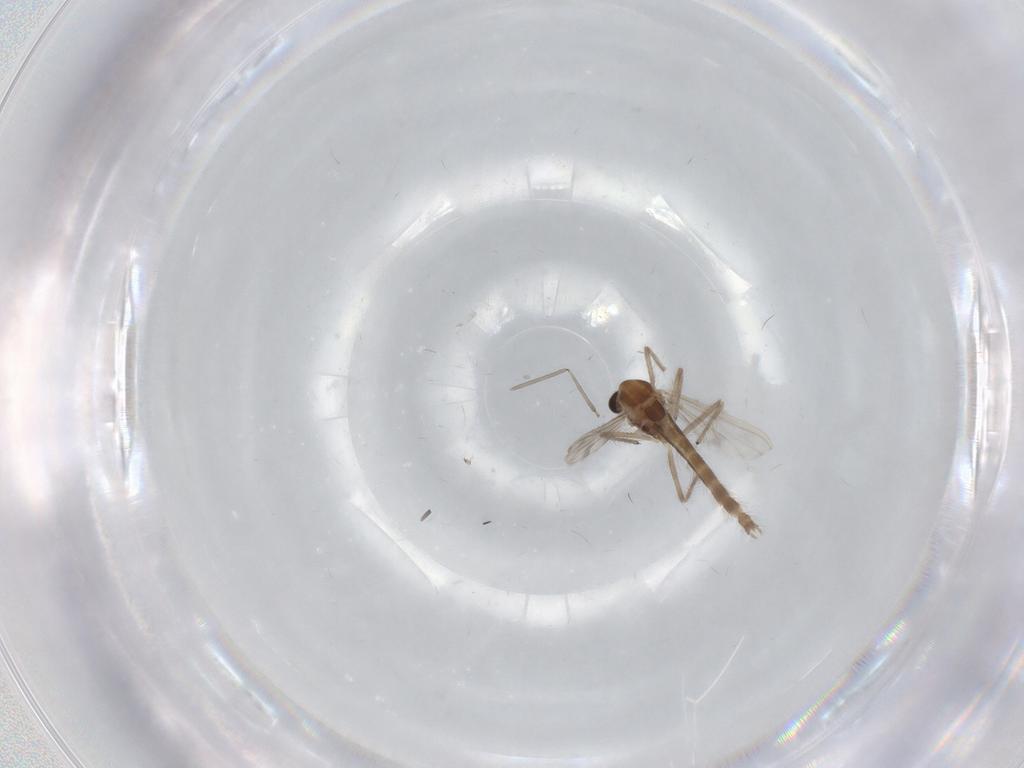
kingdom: Animalia
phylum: Arthropoda
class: Insecta
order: Diptera
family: Chironomidae
